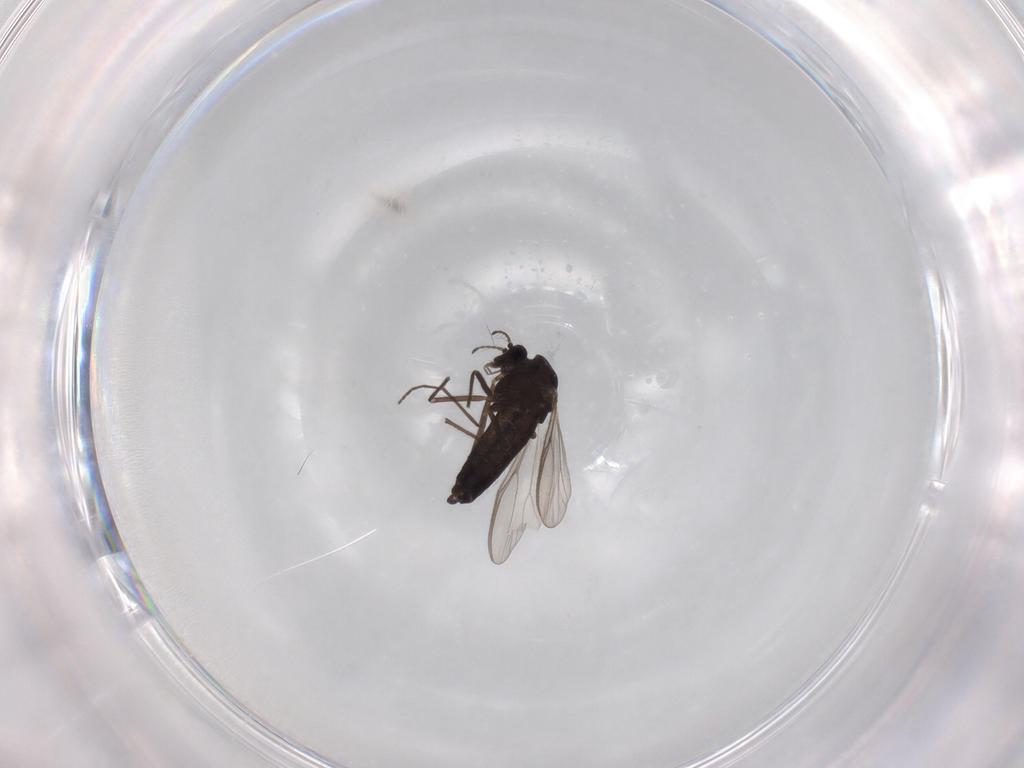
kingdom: Animalia
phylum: Arthropoda
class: Insecta
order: Diptera
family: Chironomidae
